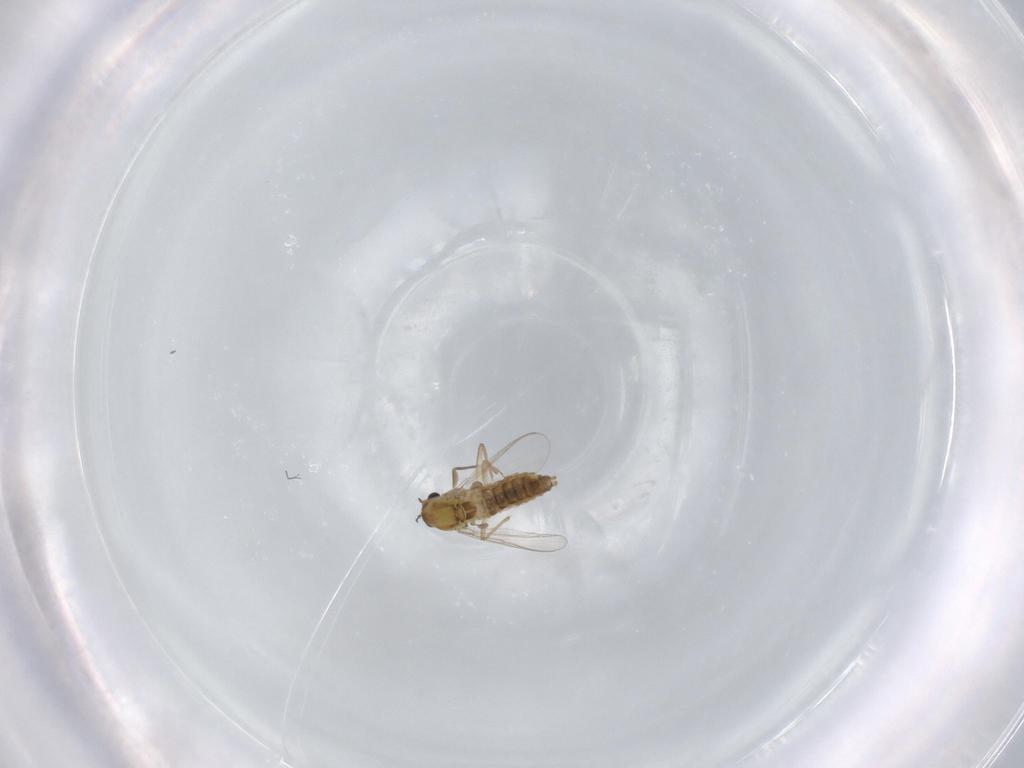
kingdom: Animalia
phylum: Arthropoda
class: Insecta
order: Diptera
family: Chironomidae
